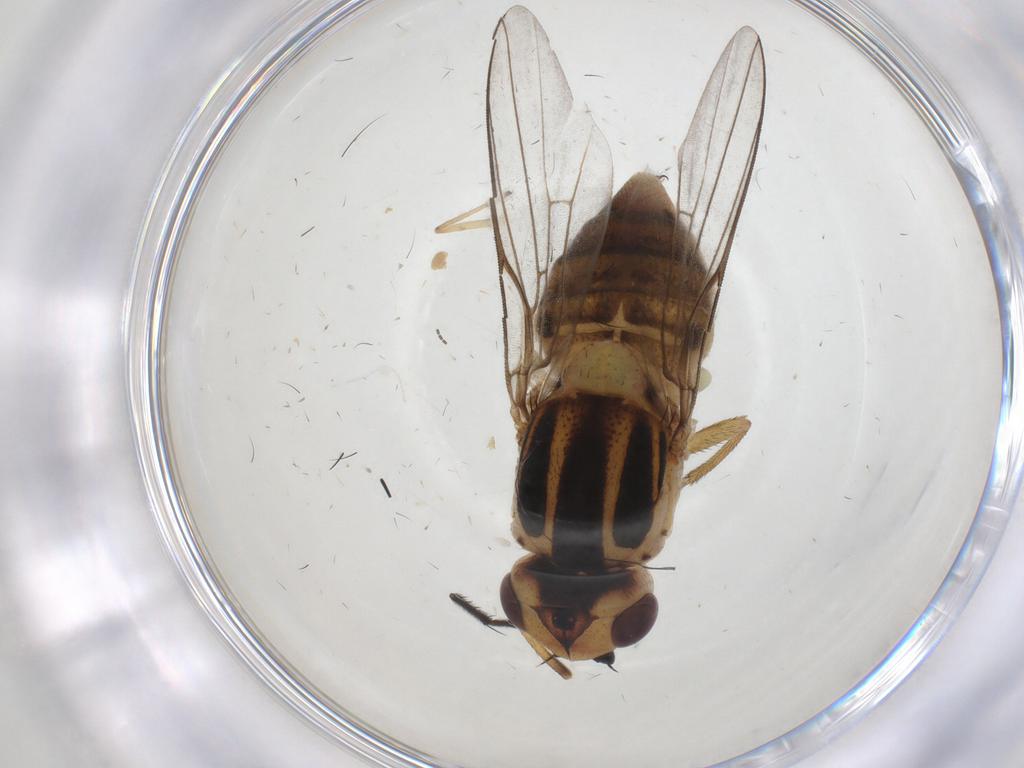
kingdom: Animalia
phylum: Arthropoda
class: Insecta
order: Diptera
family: Chloropidae
